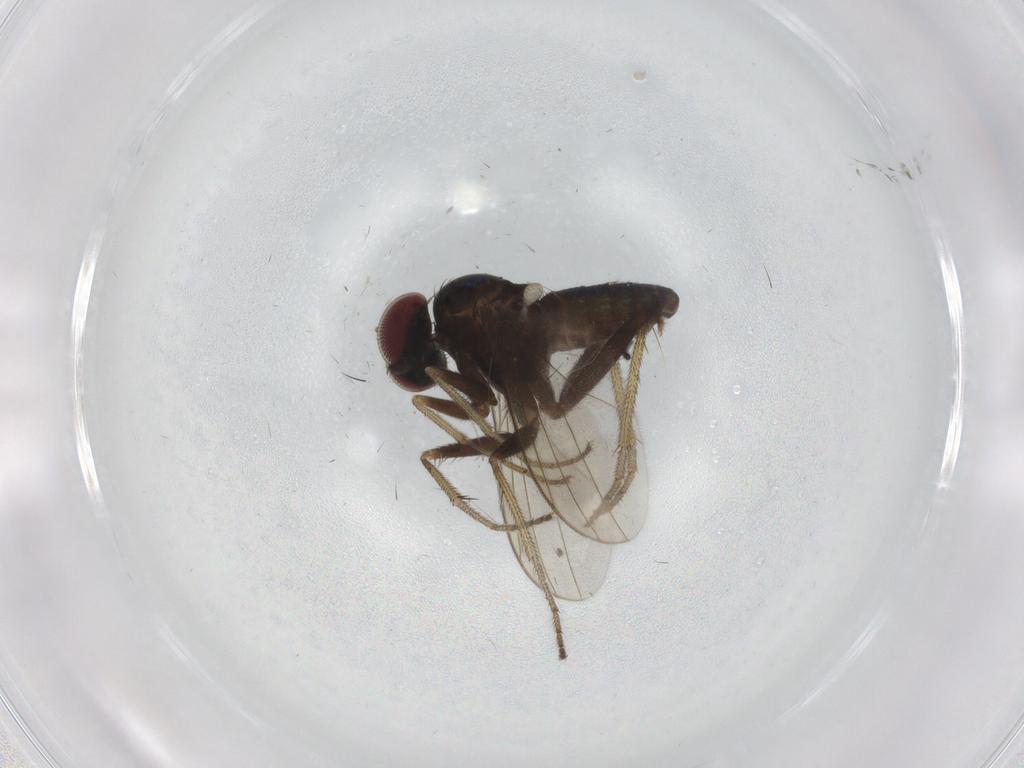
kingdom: Animalia
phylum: Arthropoda
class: Insecta
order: Diptera
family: Dolichopodidae
